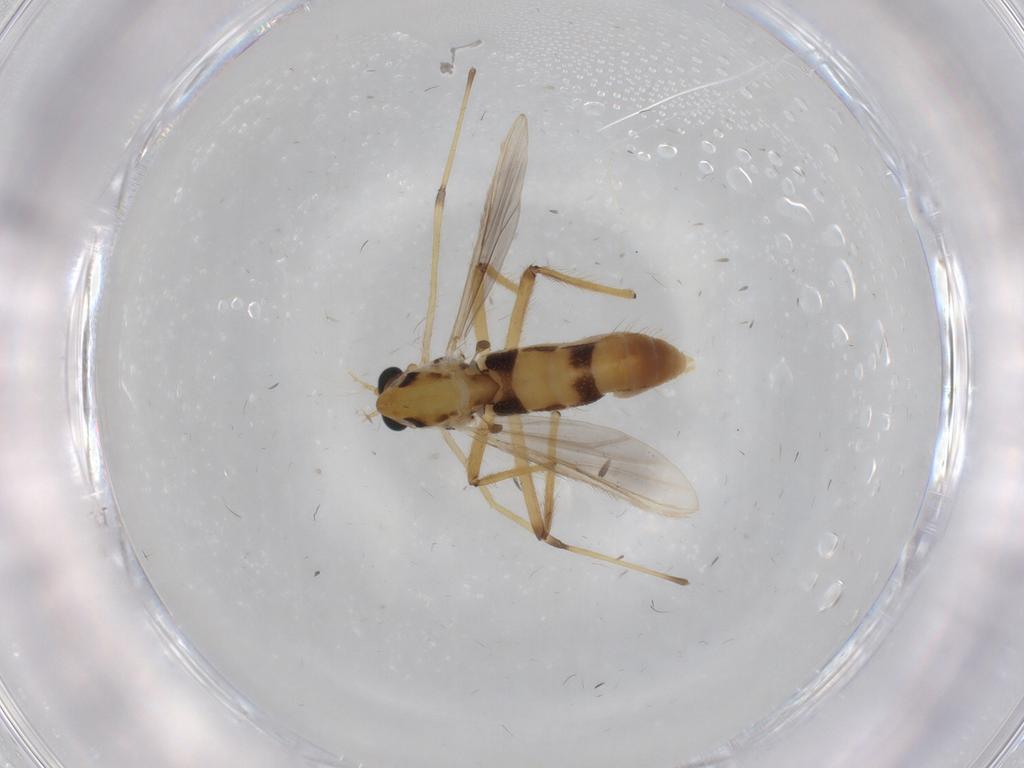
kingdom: Animalia
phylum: Arthropoda
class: Insecta
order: Diptera
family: Chironomidae
